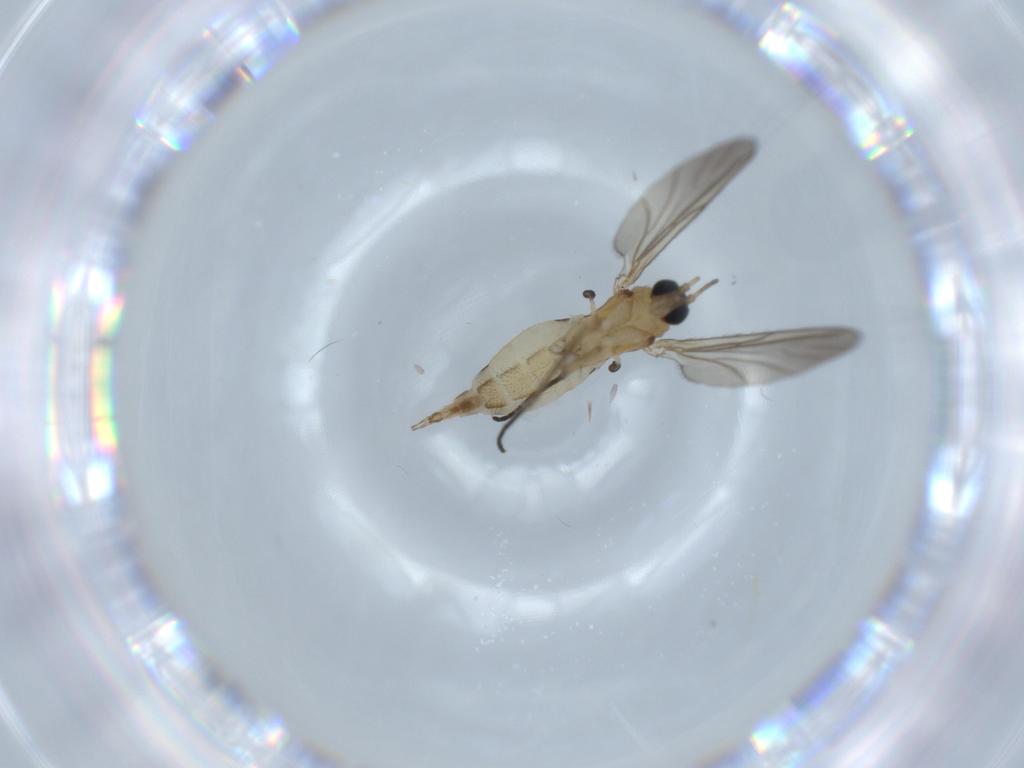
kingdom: Animalia
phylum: Arthropoda
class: Insecta
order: Diptera
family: Sciaridae
